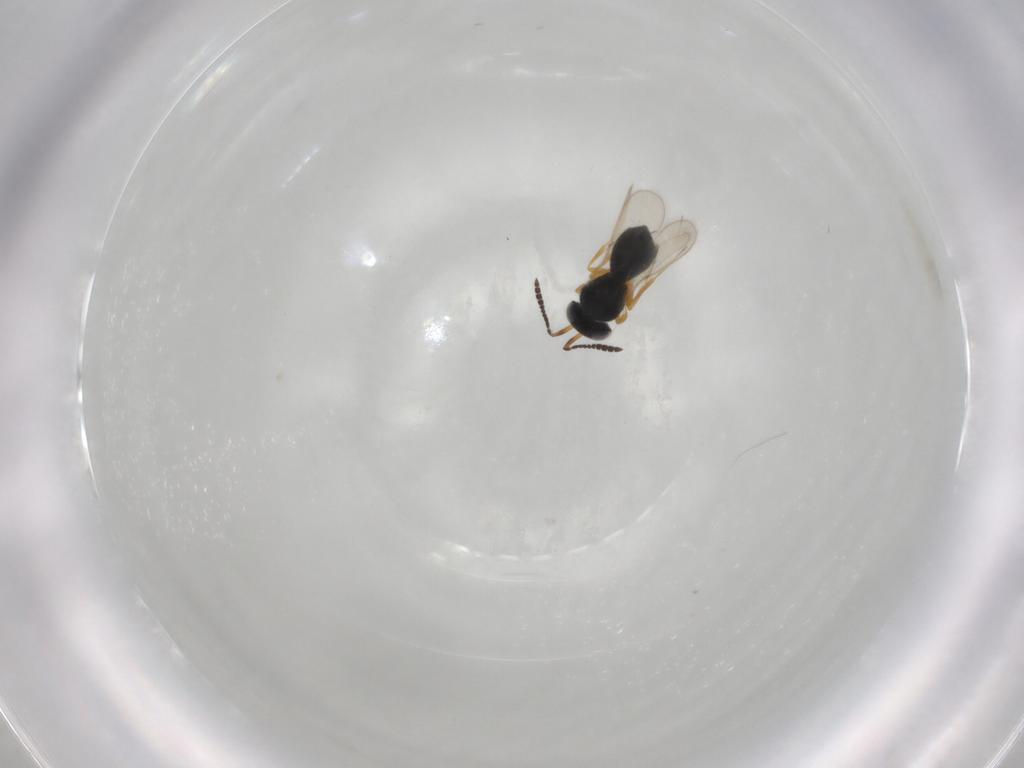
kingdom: Animalia
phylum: Arthropoda
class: Insecta
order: Hymenoptera
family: Scelionidae
